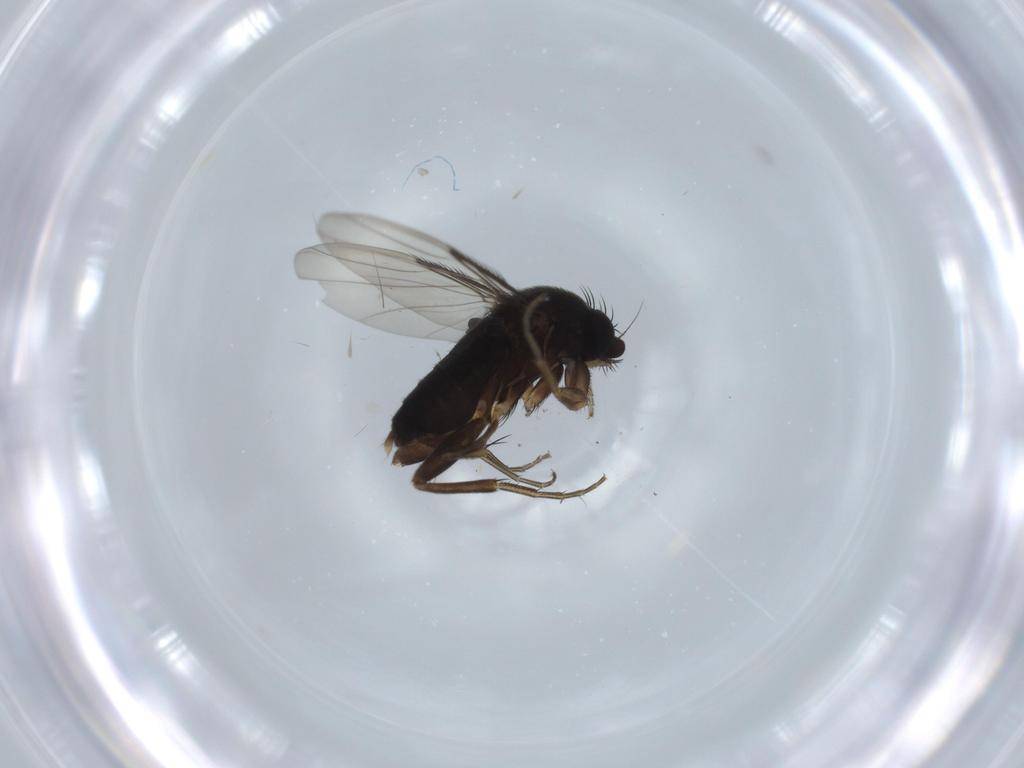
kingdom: Animalia
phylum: Arthropoda
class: Insecta
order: Diptera
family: Phoridae
